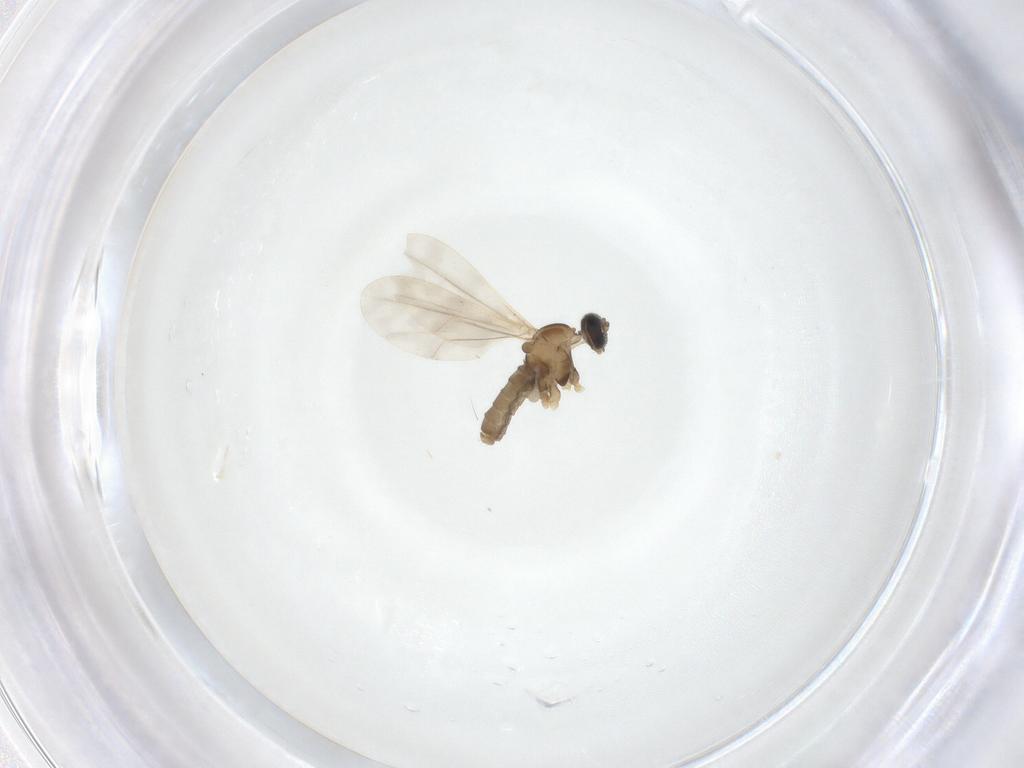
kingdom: Animalia
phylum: Arthropoda
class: Insecta
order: Diptera
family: Cecidomyiidae
